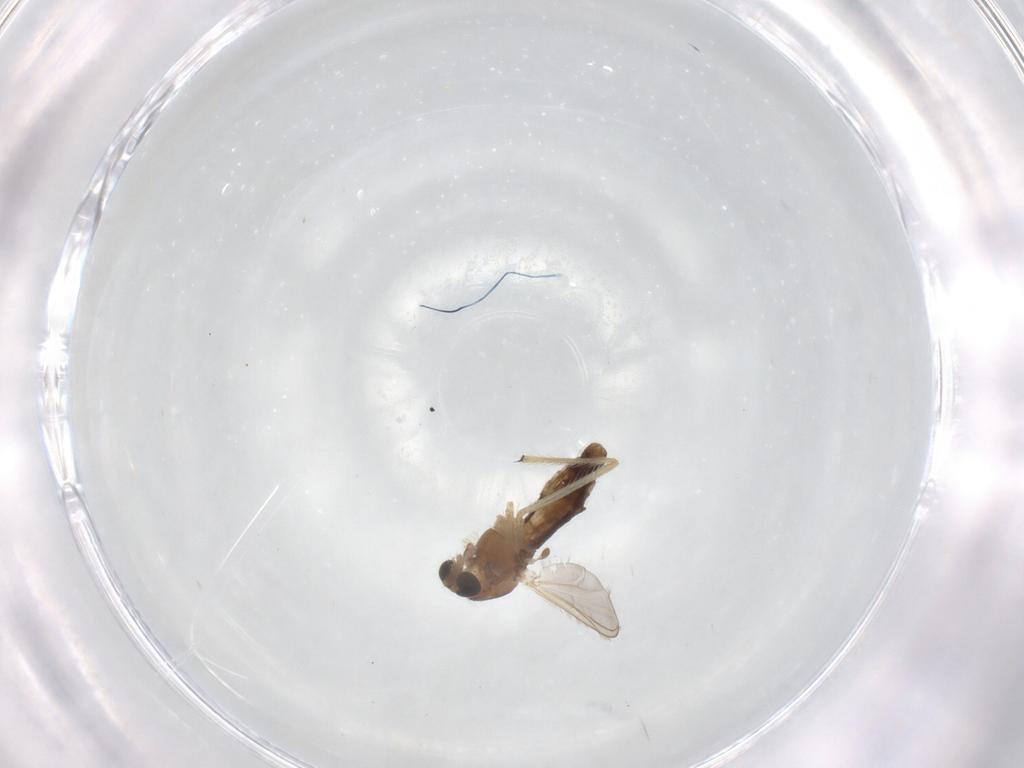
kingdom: Animalia
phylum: Arthropoda
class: Insecta
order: Diptera
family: Chironomidae
